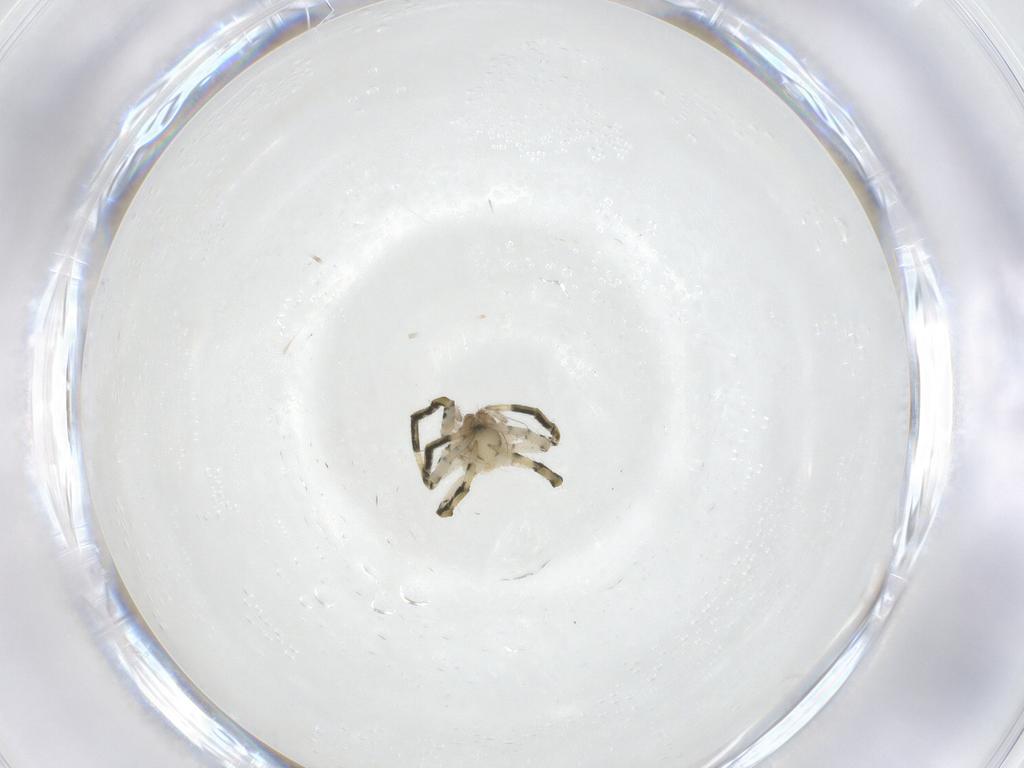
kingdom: Animalia
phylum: Arthropoda
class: Arachnida
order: Araneae
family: Theridiidae
